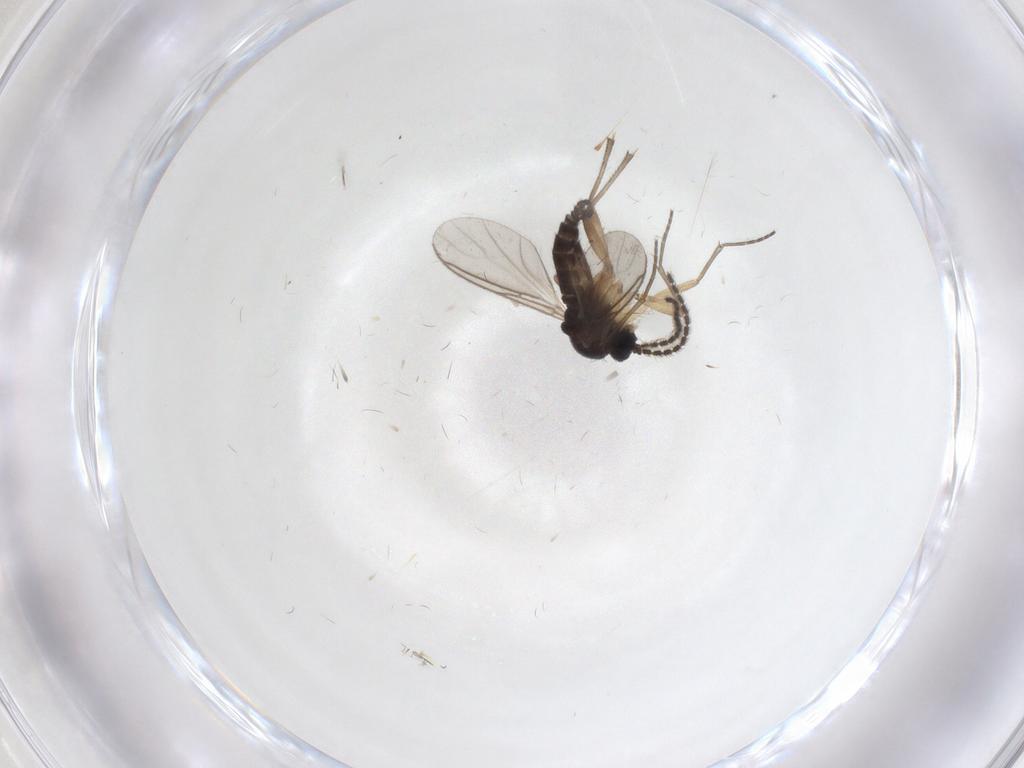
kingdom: Animalia
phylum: Arthropoda
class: Insecta
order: Diptera
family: Chironomidae
